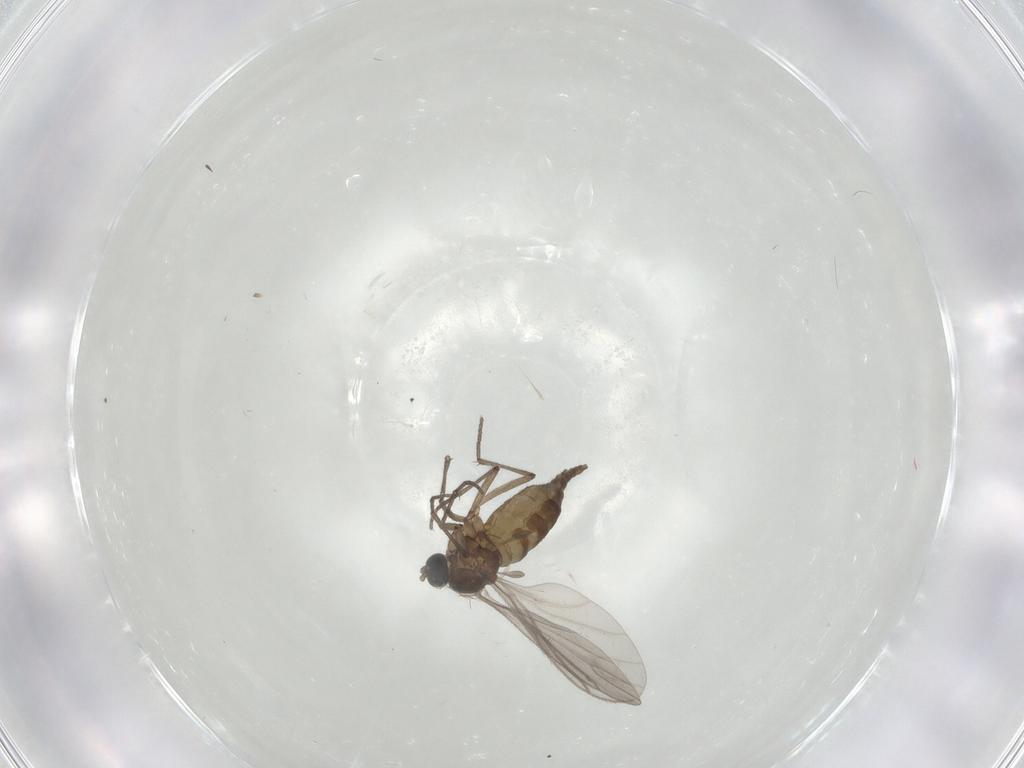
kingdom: Animalia
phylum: Arthropoda
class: Insecta
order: Diptera
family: Sciaridae
